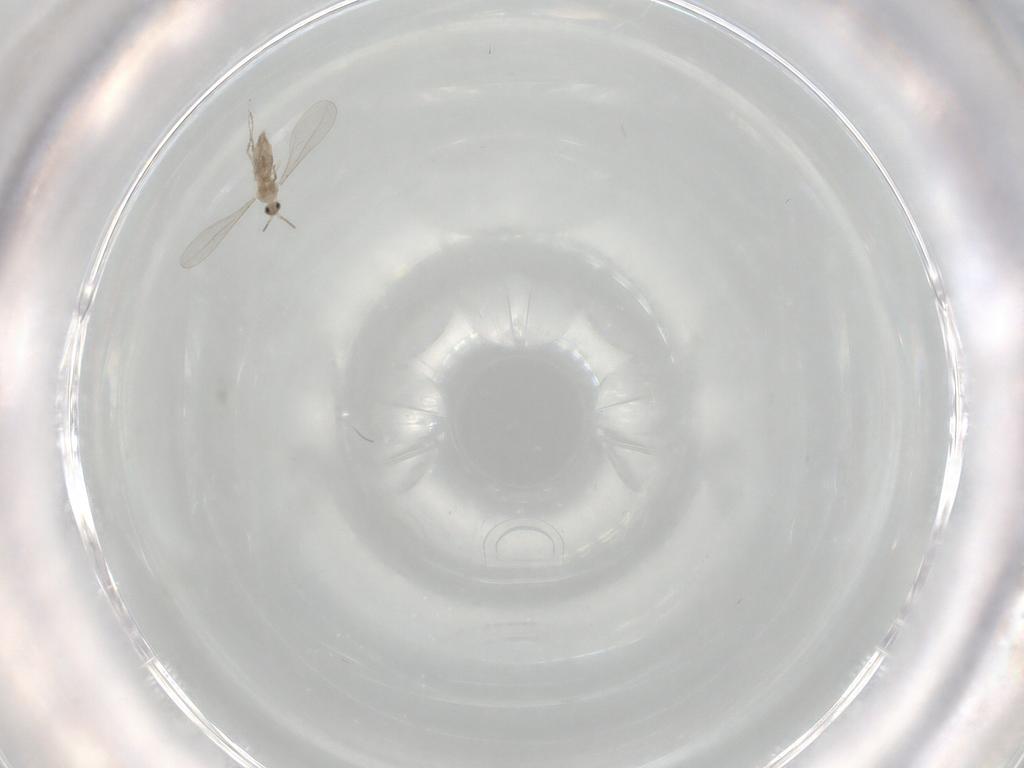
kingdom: Animalia
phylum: Arthropoda
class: Insecta
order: Diptera
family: Cecidomyiidae
